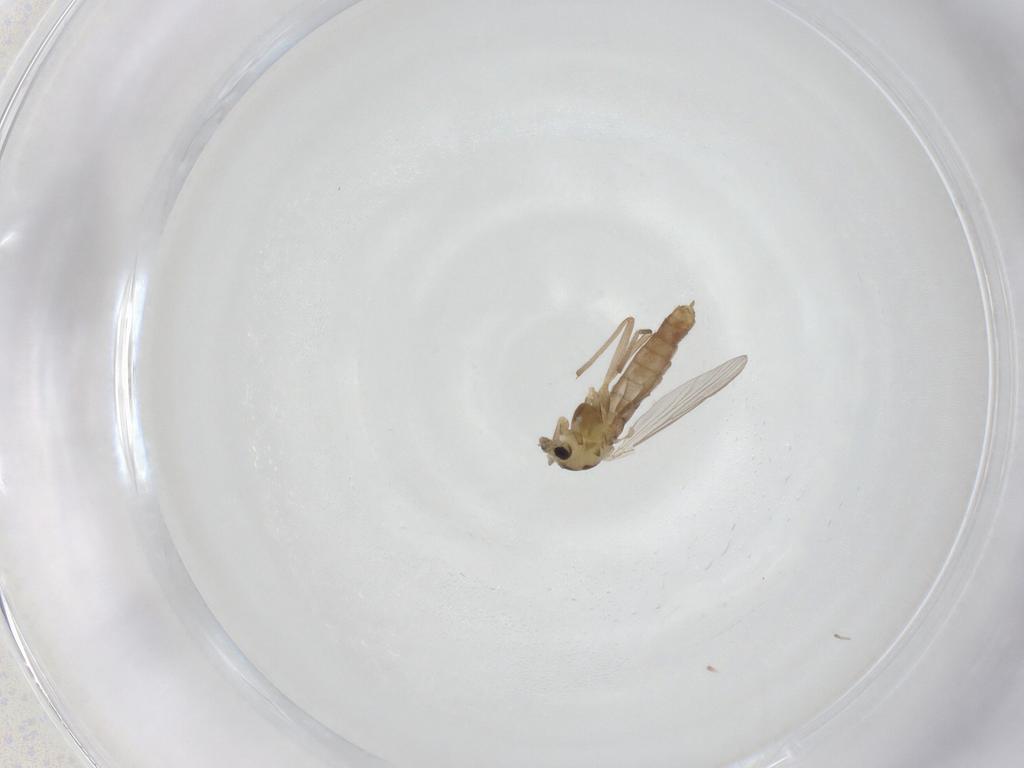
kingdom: Animalia
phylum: Arthropoda
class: Insecta
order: Diptera
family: Chironomidae
